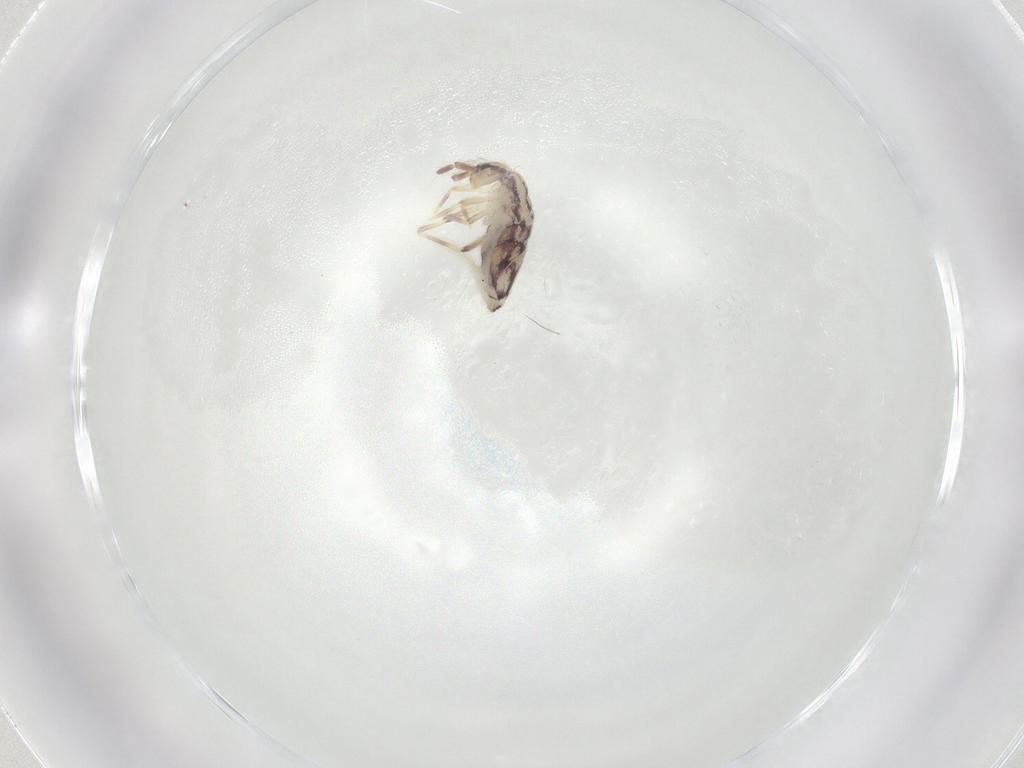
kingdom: Animalia
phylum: Arthropoda
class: Collembola
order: Entomobryomorpha
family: Entomobryidae
